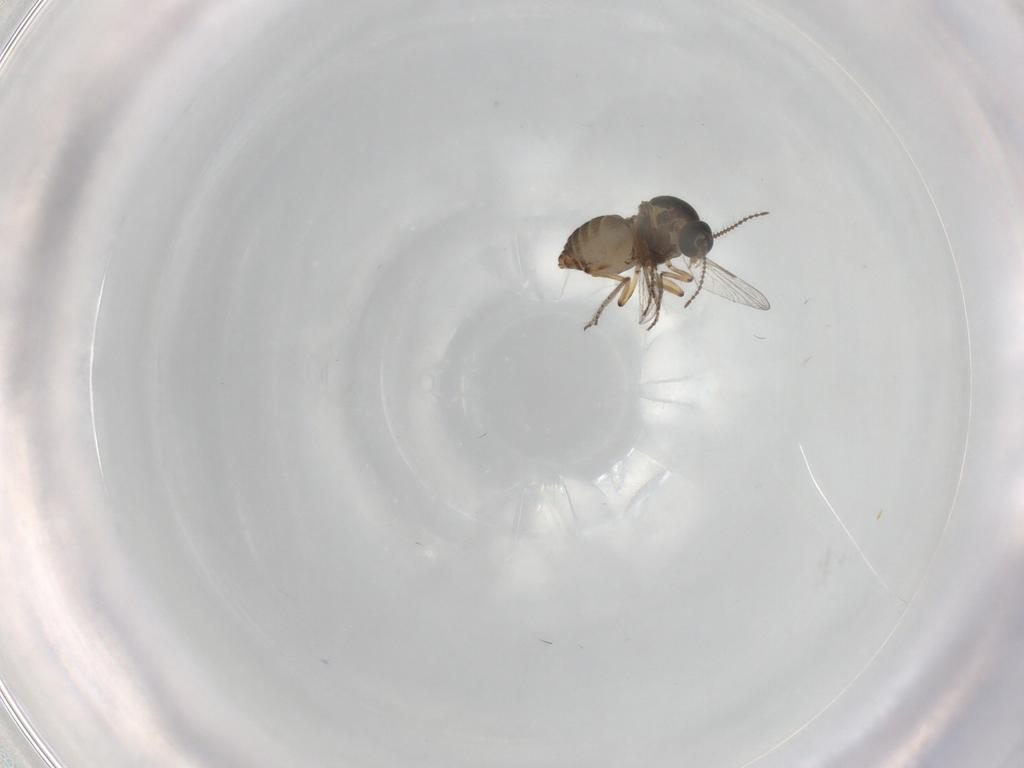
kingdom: Animalia
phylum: Arthropoda
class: Insecta
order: Diptera
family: Ceratopogonidae
